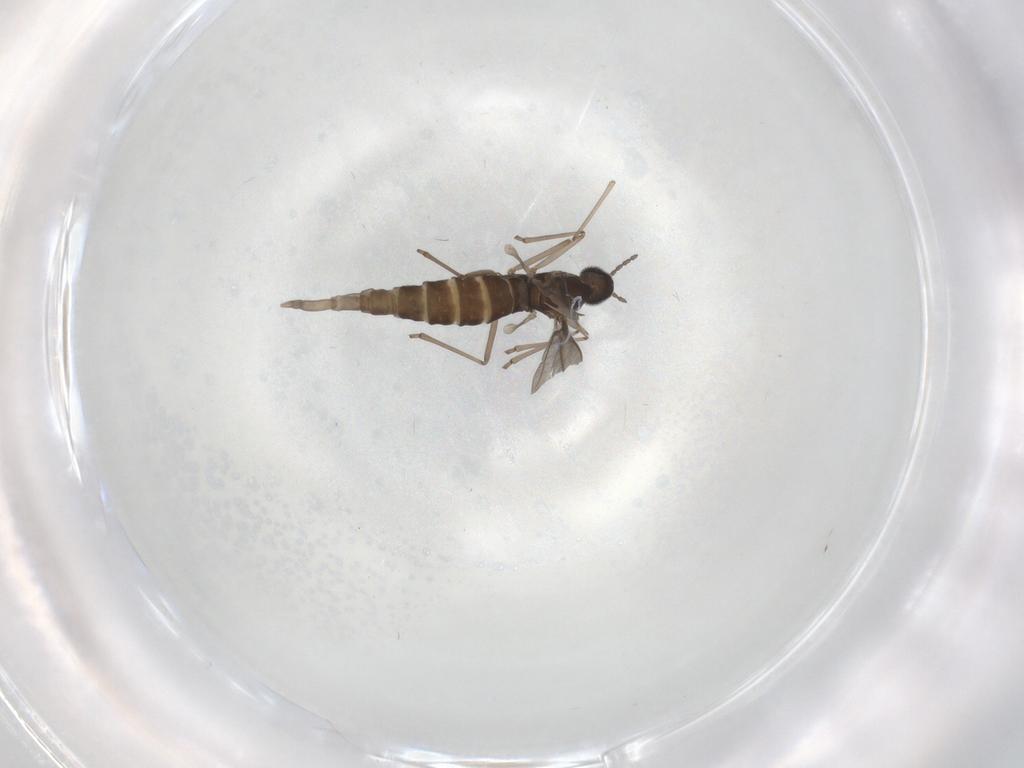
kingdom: Animalia
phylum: Arthropoda
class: Insecta
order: Diptera
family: Cecidomyiidae
